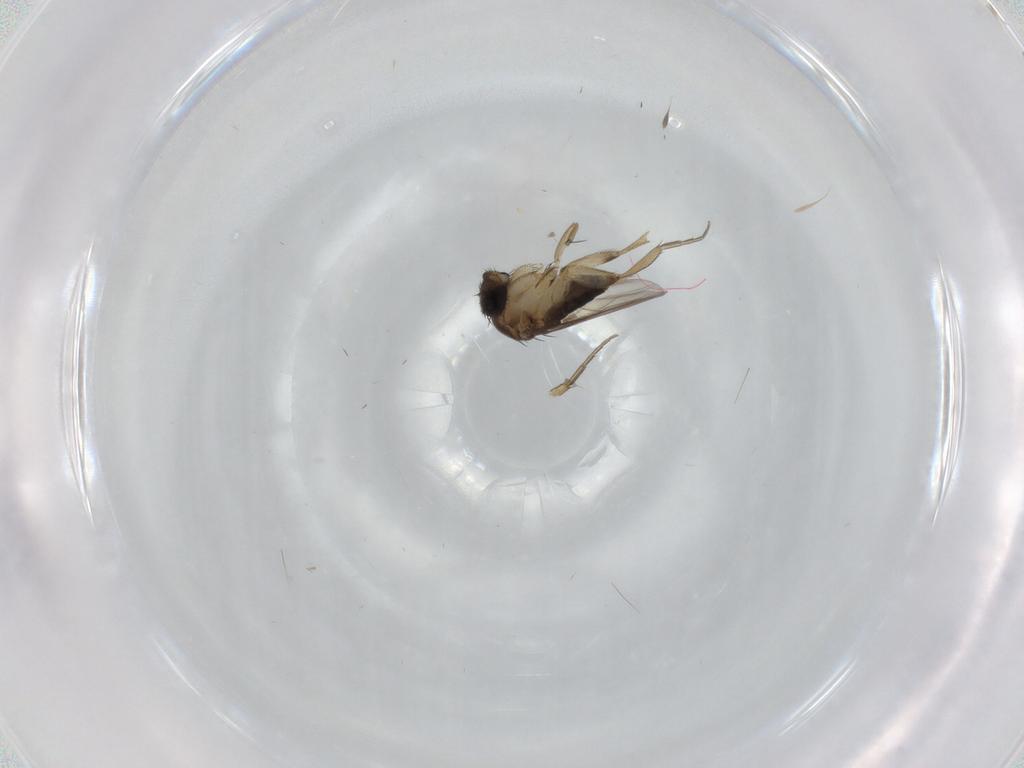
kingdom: Animalia
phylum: Arthropoda
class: Insecta
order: Diptera
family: Phoridae
